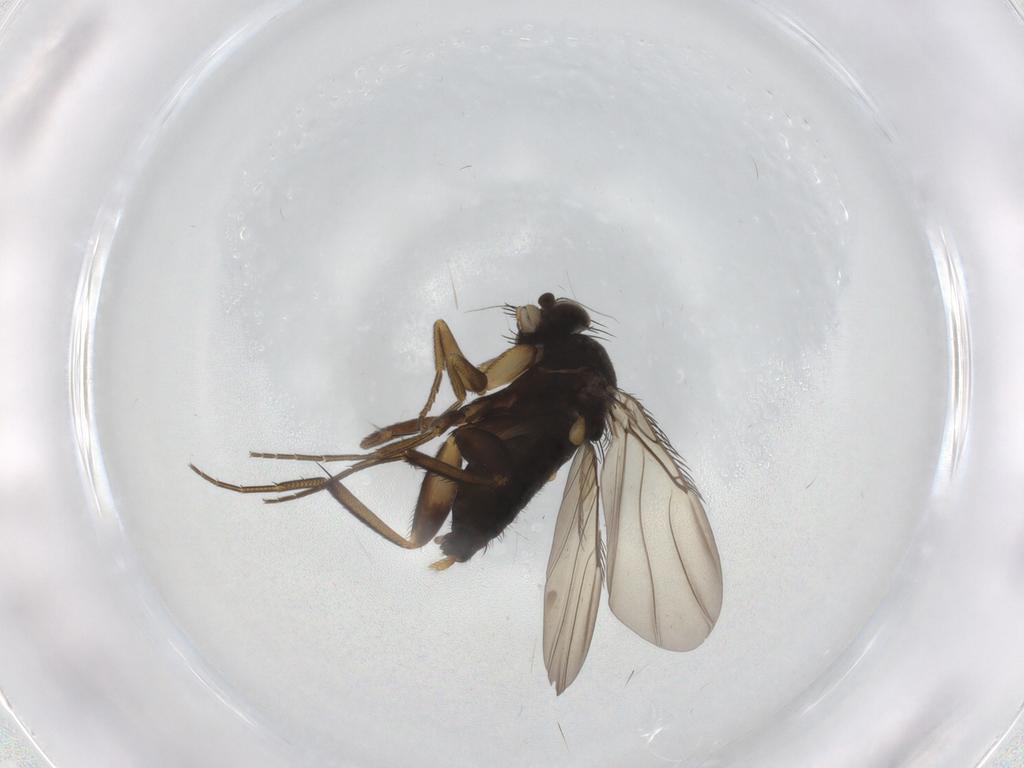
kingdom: Animalia
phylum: Arthropoda
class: Insecta
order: Diptera
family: Phoridae
